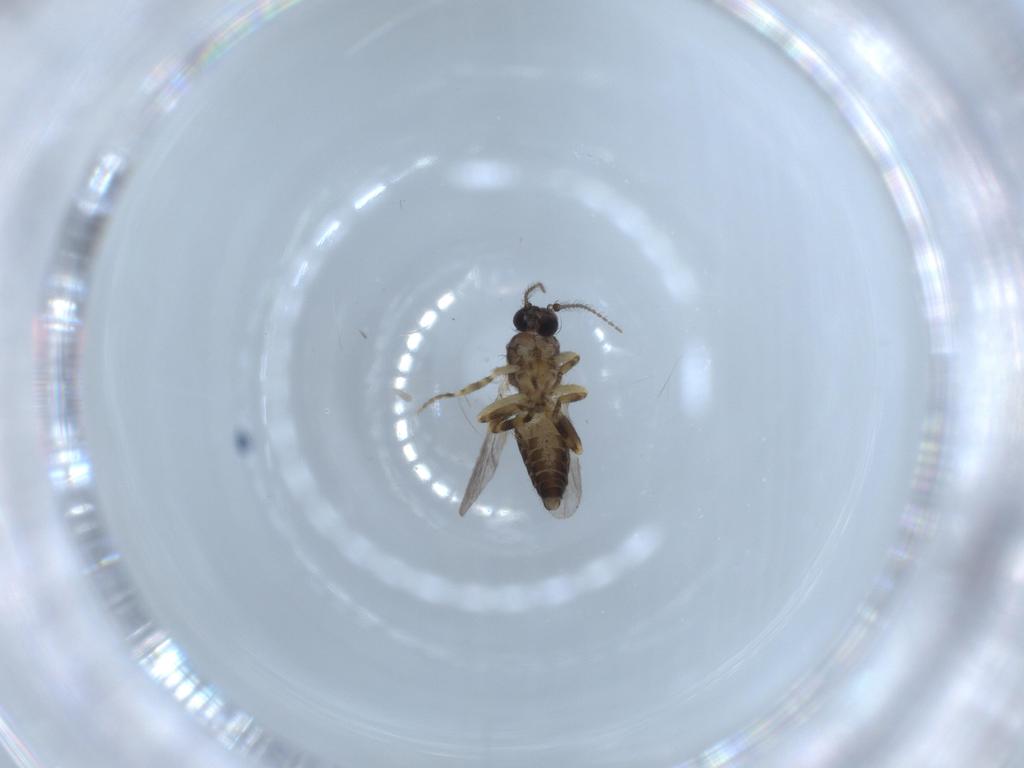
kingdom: Animalia
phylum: Arthropoda
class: Insecta
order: Diptera
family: Ceratopogonidae
